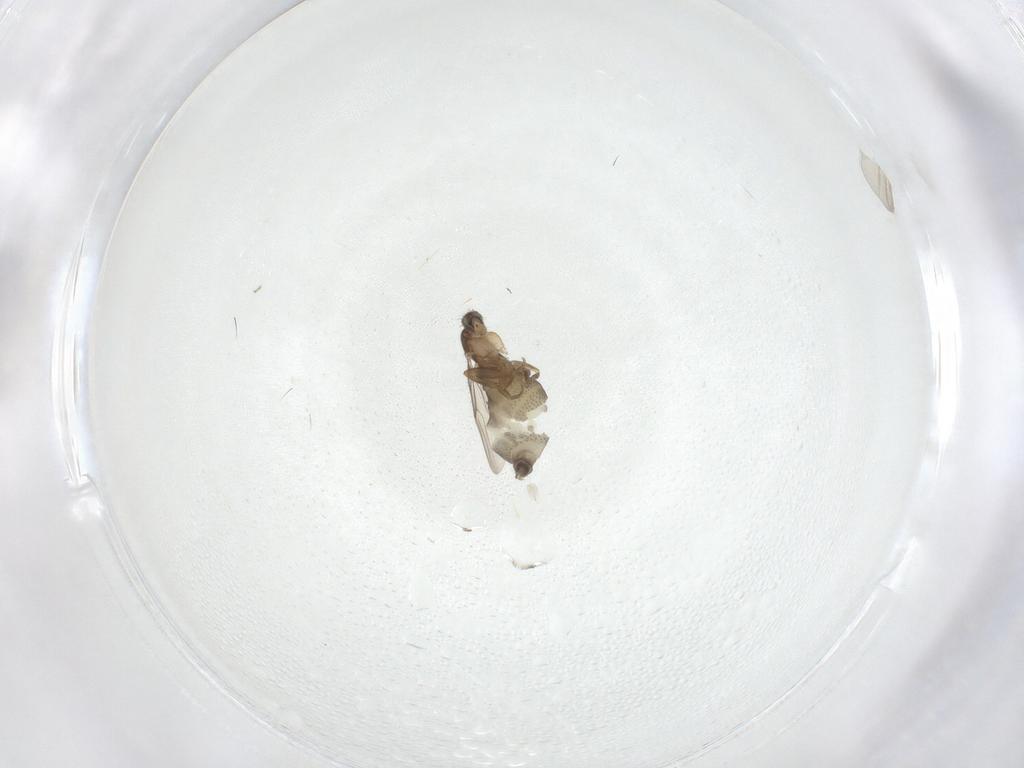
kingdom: Animalia
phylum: Arthropoda
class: Insecta
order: Diptera
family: Phoridae
